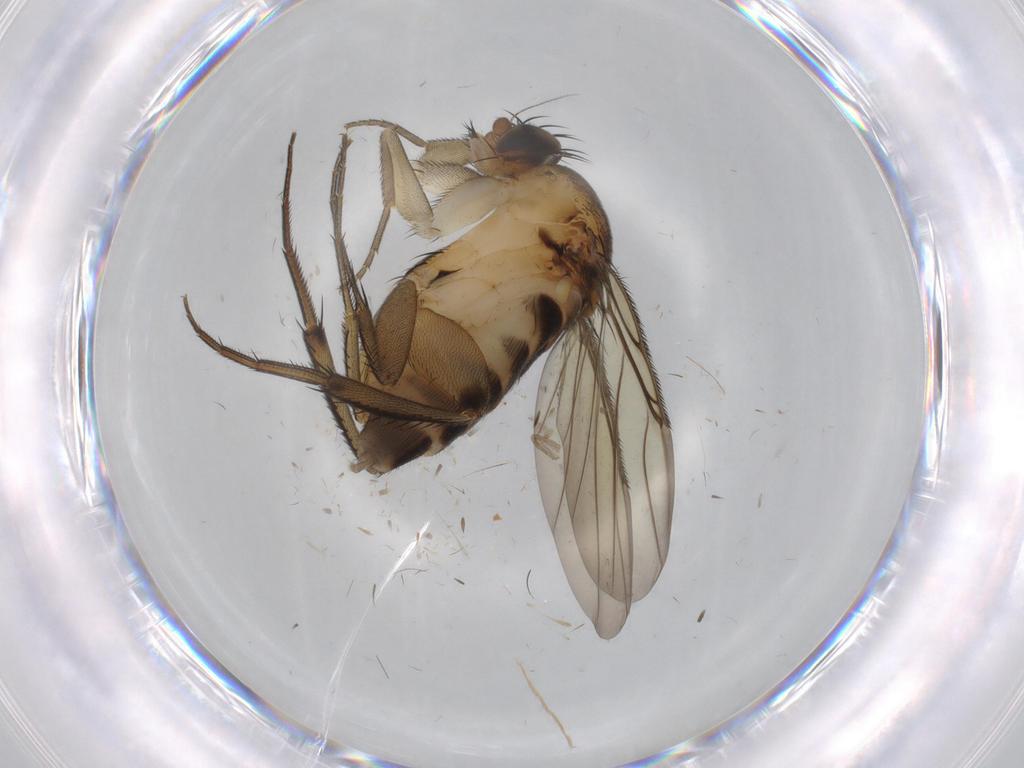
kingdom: Animalia
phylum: Arthropoda
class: Insecta
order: Diptera
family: Cecidomyiidae
